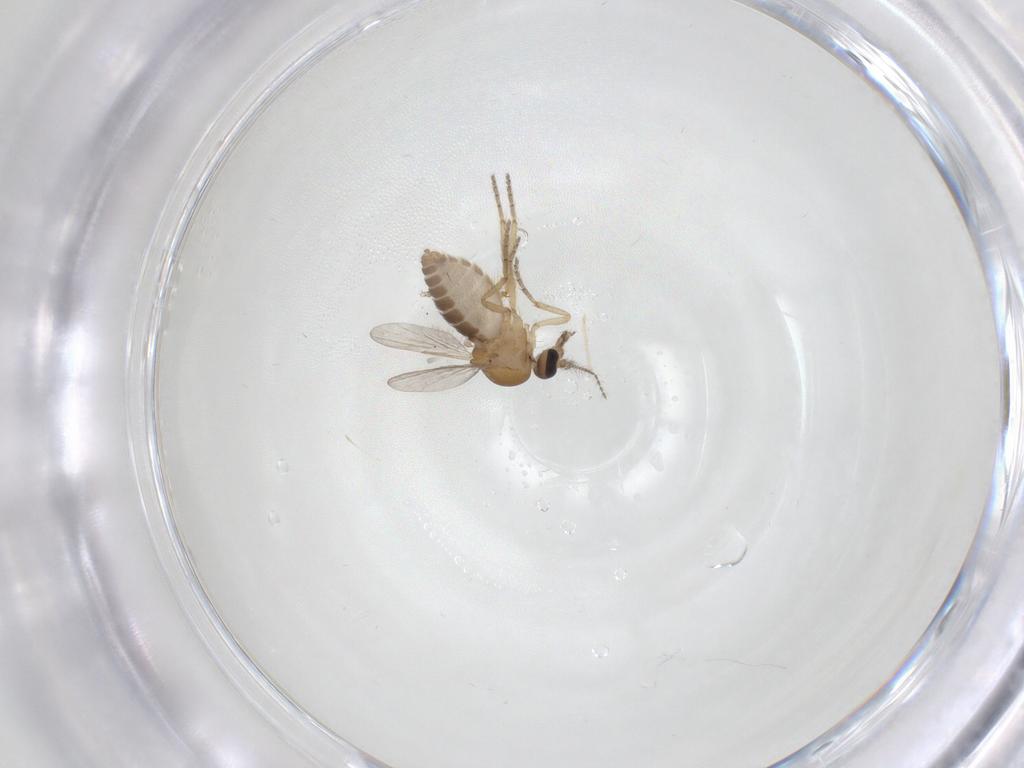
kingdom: Animalia
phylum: Arthropoda
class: Insecta
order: Diptera
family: Ceratopogonidae
